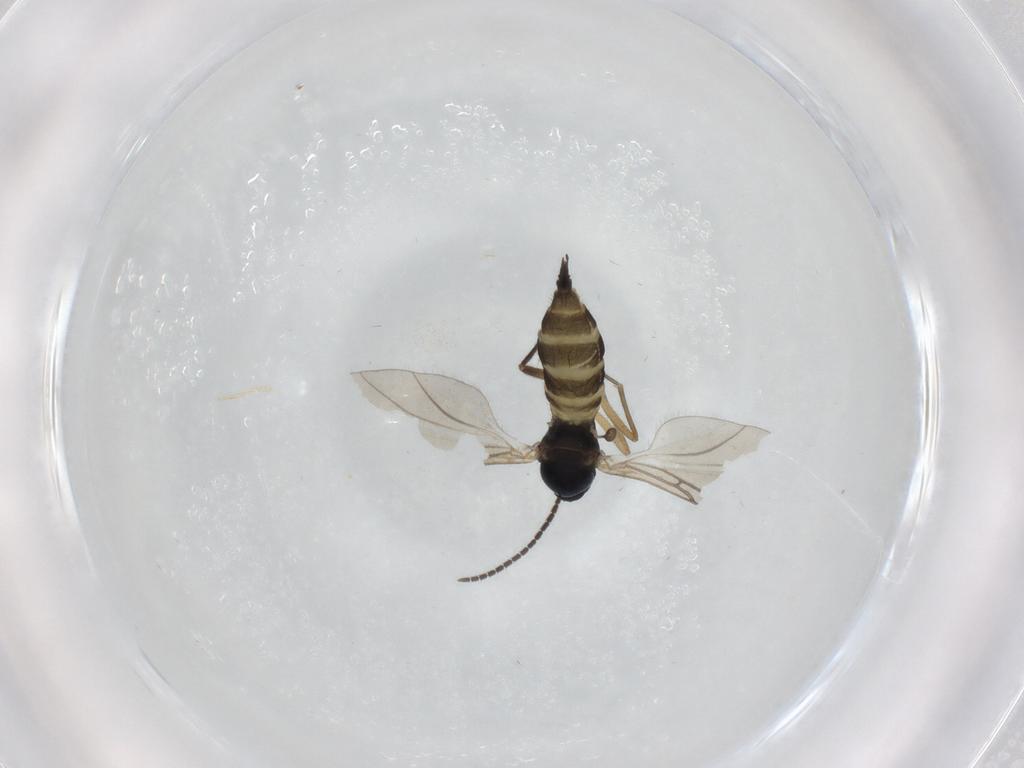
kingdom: Animalia
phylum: Arthropoda
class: Insecta
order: Diptera
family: Sciaridae
